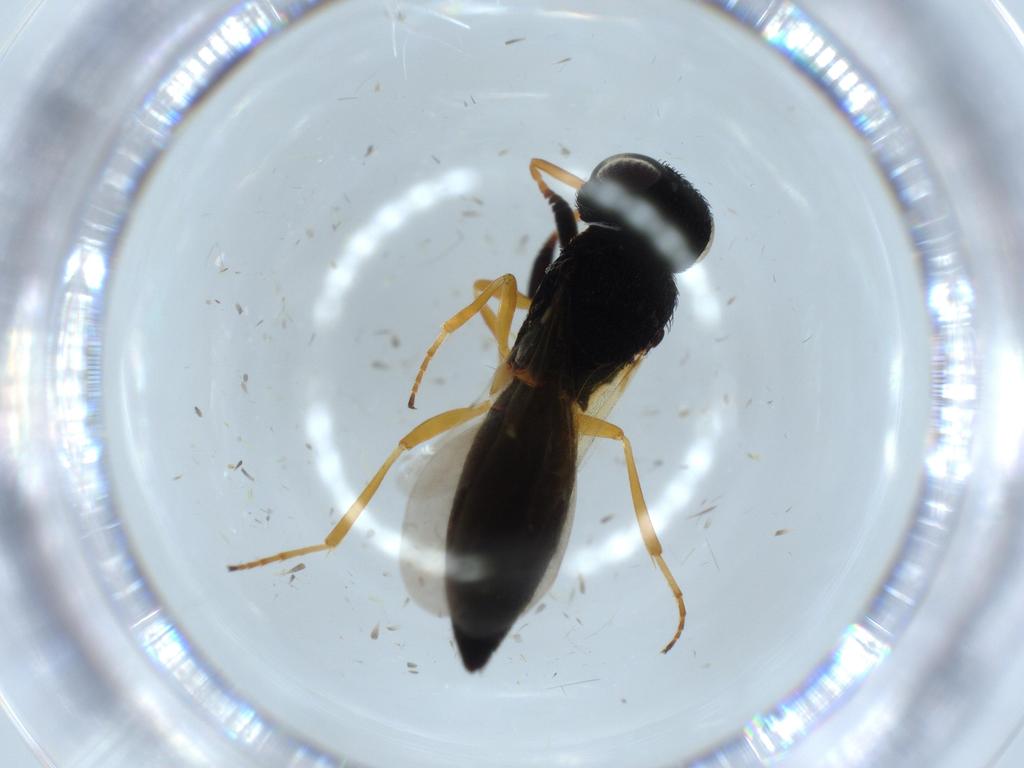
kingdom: Animalia
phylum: Arthropoda
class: Insecta
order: Hymenoptera
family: Scelionidae
